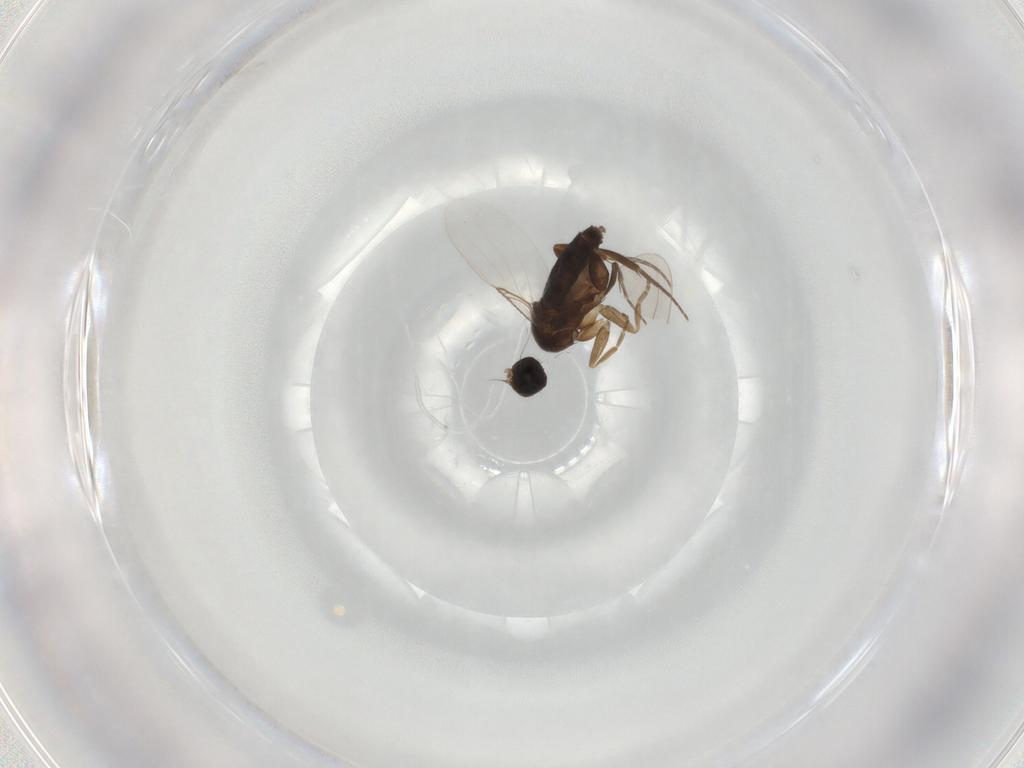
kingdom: Animalia
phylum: Arthropoda
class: Insecta
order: Diptera
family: Phoridae
